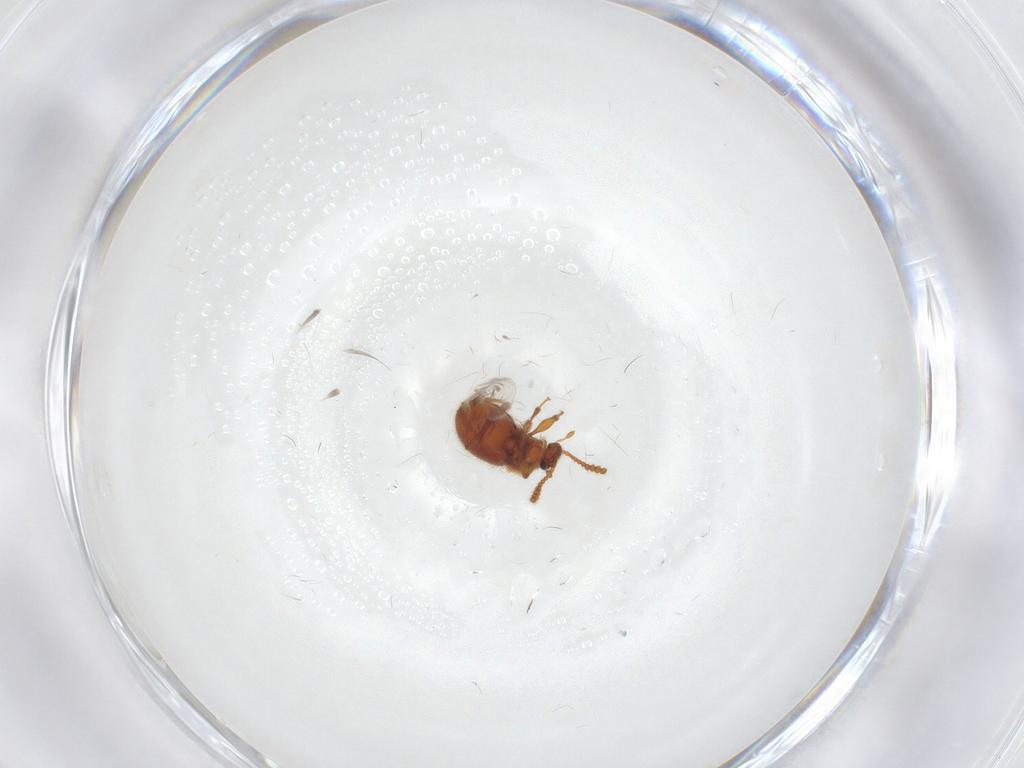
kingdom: Animalia
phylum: Arthropoda
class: Insecta
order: Coleoptera
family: Staphylinidae
